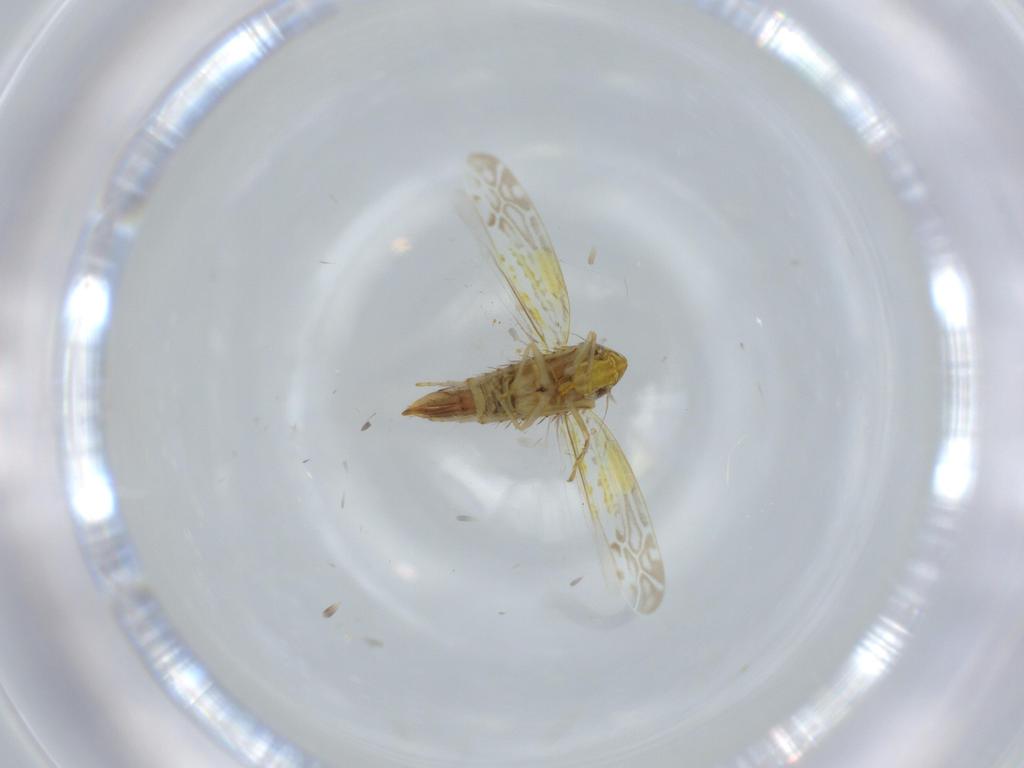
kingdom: Animalia
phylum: Arthropoda
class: Insecta
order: Hemiptera
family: Cicadellidae
